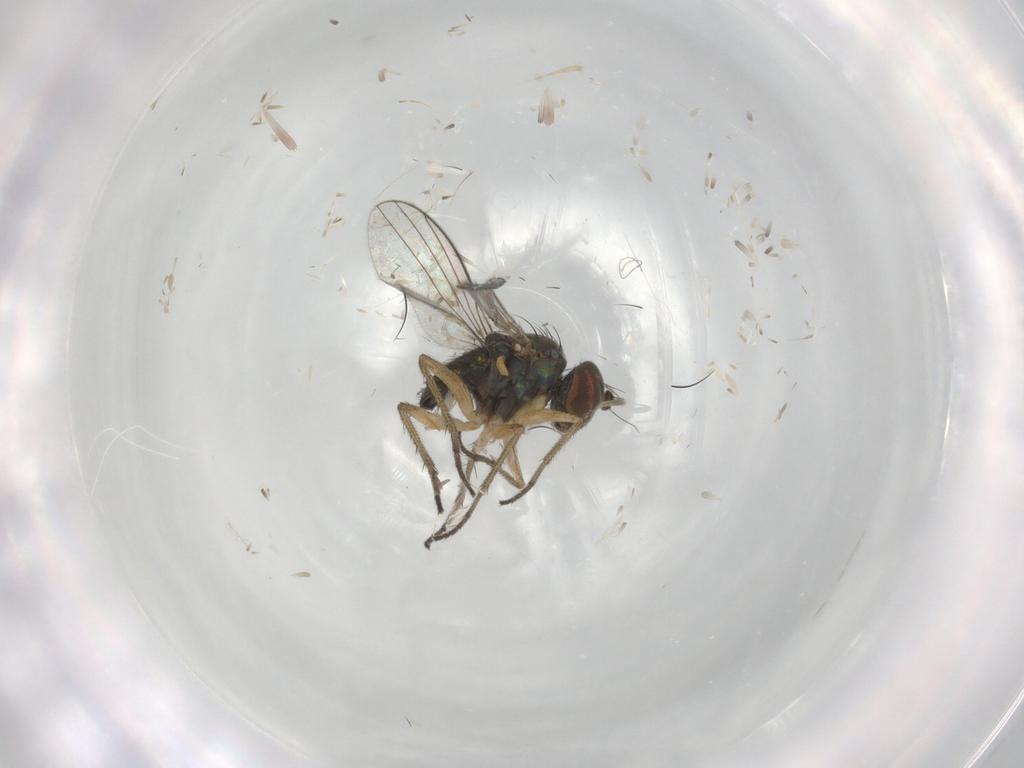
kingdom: Animalia
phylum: Arthropoda
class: Insecta
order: Diptera
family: Dolichopodidae
